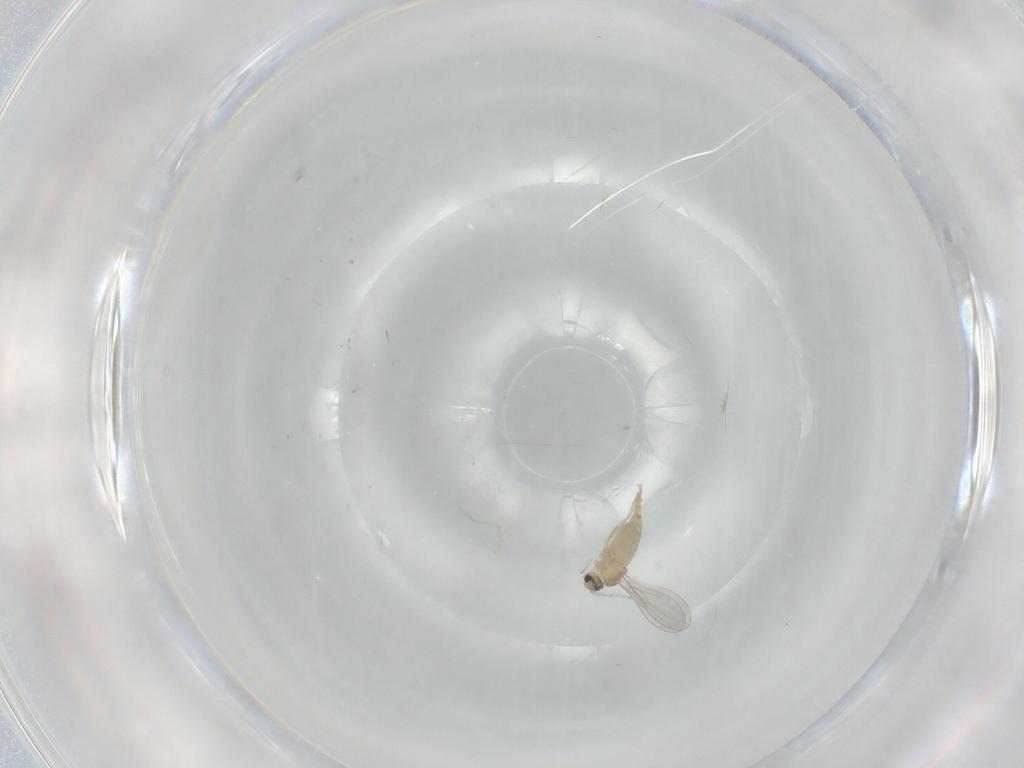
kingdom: Animalia
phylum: Arthropoda
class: Insecta
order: Diptera
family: Cecidomyiidae
